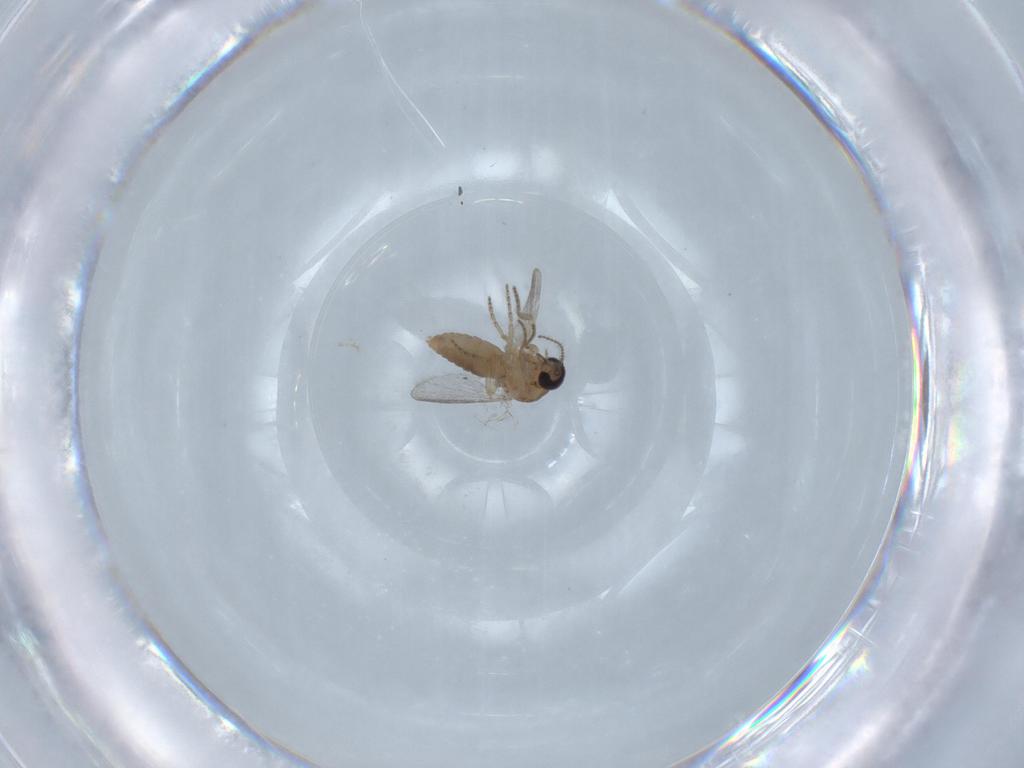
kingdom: Animalia
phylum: Arthropoda
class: Insecta
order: Diptera
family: Ceratopogonidae
